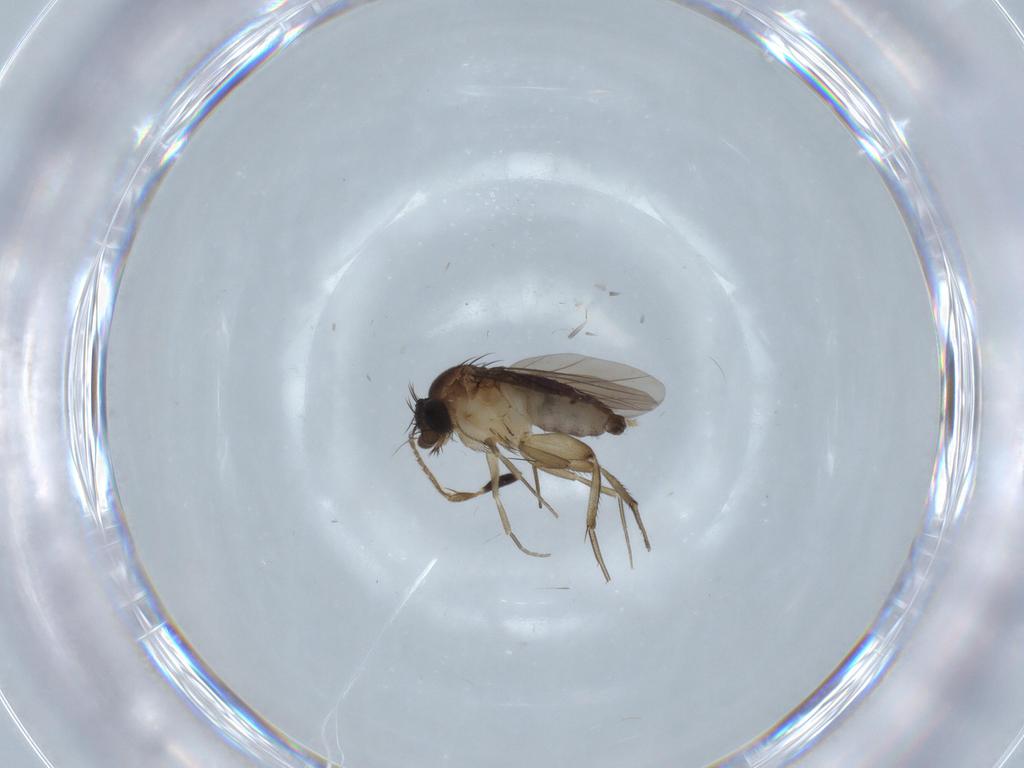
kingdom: Animalia
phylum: Arthropoda
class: Insecta
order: Diptera
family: Phoridae
